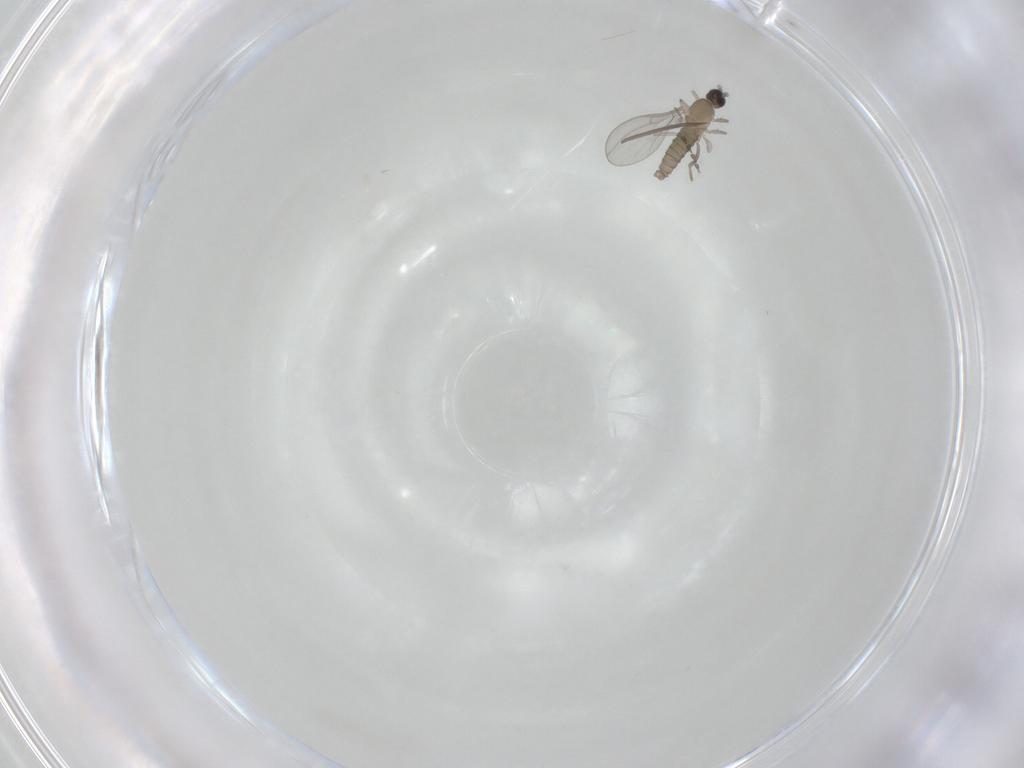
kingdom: Animalia
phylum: Arthropoda
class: Insecta
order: Diptera
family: Cecidomyiidae
